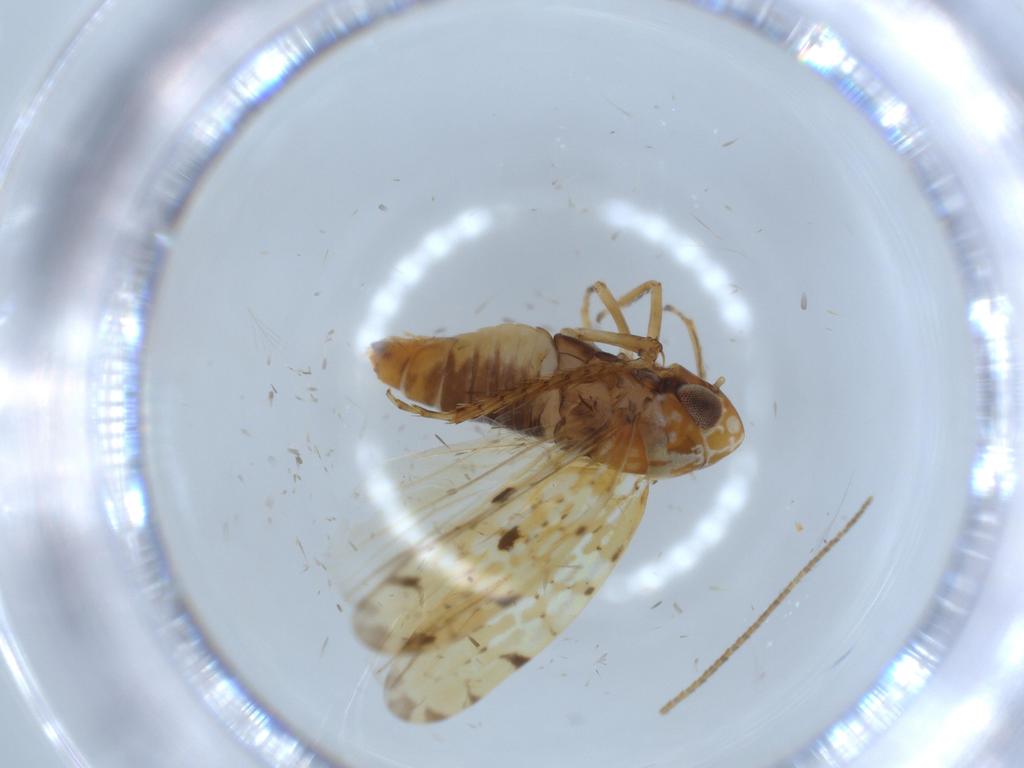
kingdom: Animalia
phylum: Arthropoda
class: Insecta
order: Hemiptera
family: Cicadellidae
